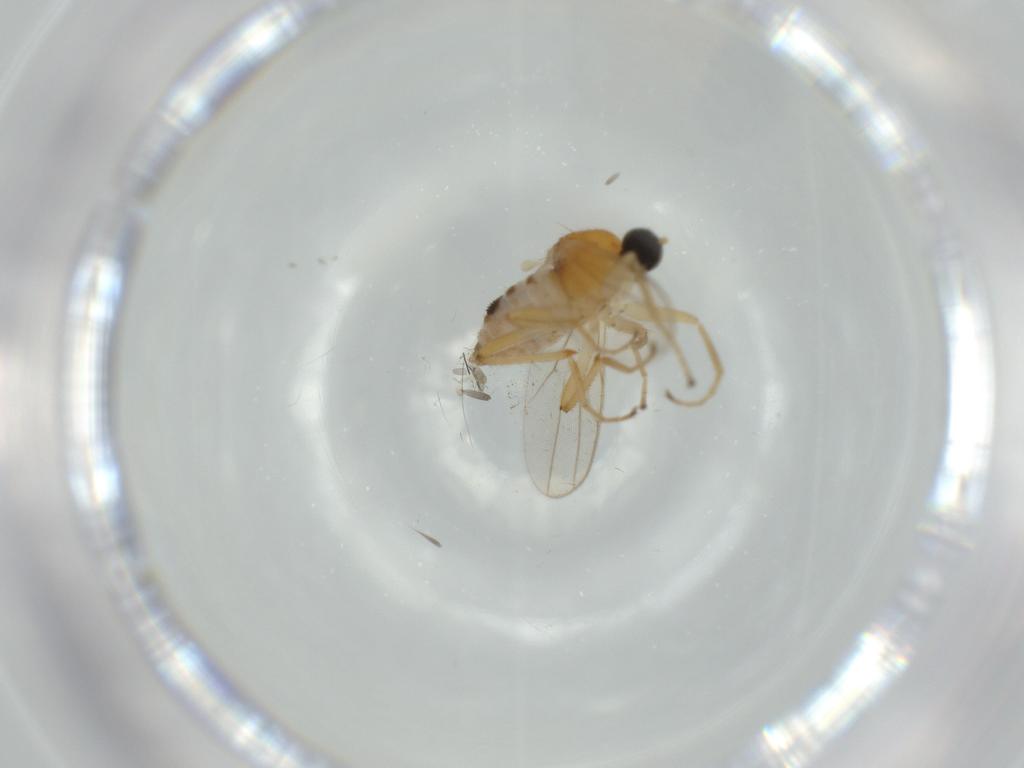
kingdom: Animalia
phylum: Arthropoda
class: Insecta
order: Diptera
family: Hybotidae
